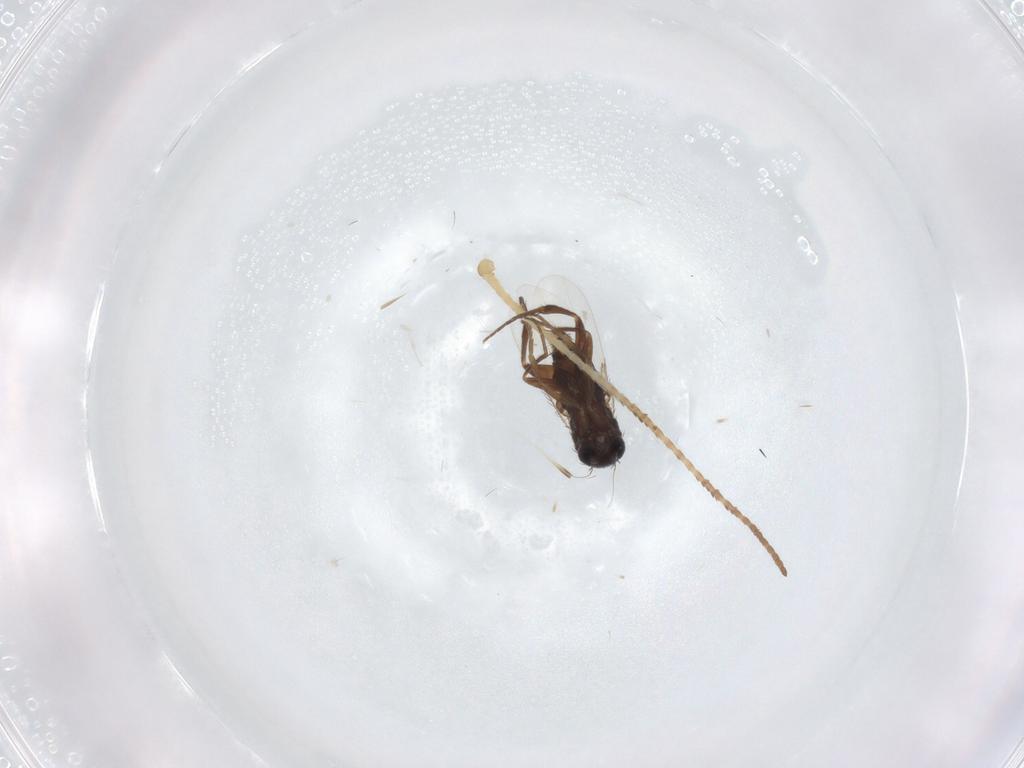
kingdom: Animalia
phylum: Arthropoda
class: Insecta
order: Diptera
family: Phoridae
